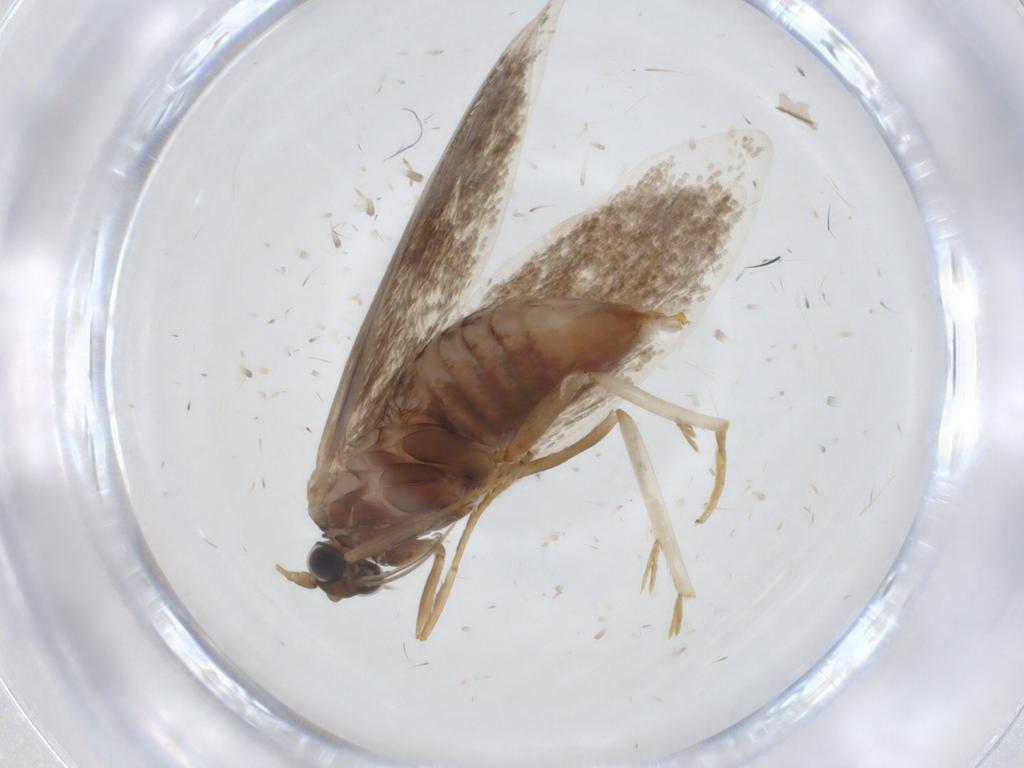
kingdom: Animalia
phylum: Arthropoda
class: Insecta
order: Lepidoptera
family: Adelidae
